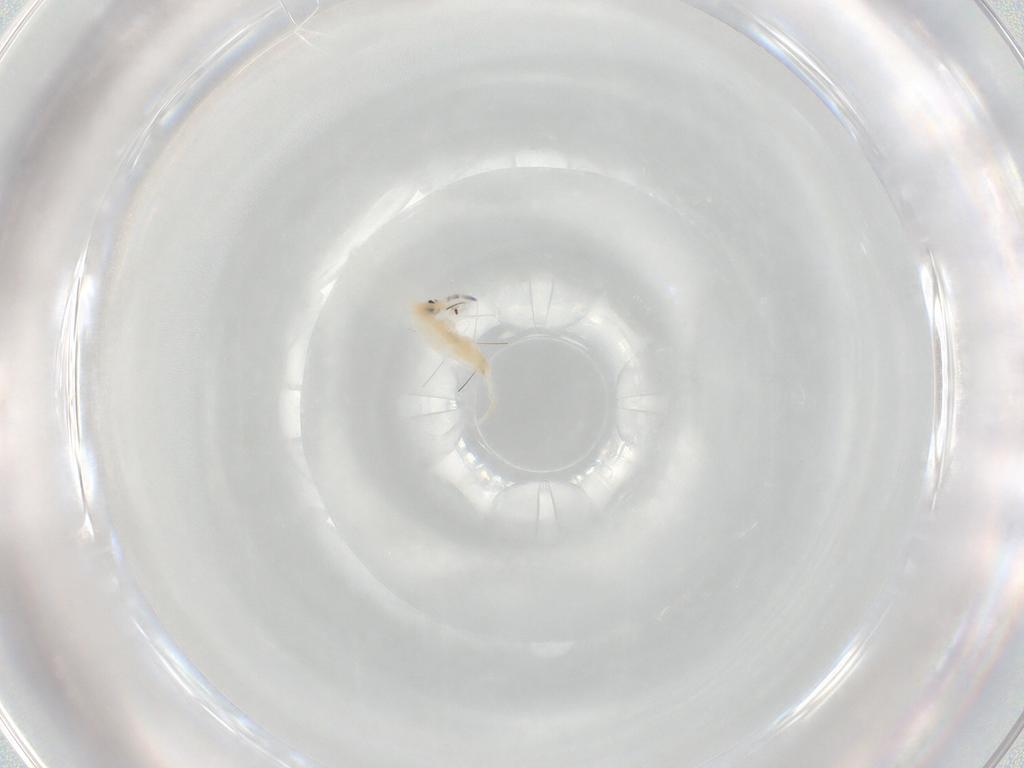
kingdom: Animalia
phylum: Arthropoda
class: Collembola
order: Entomobryomorpha
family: Entomobryidae
